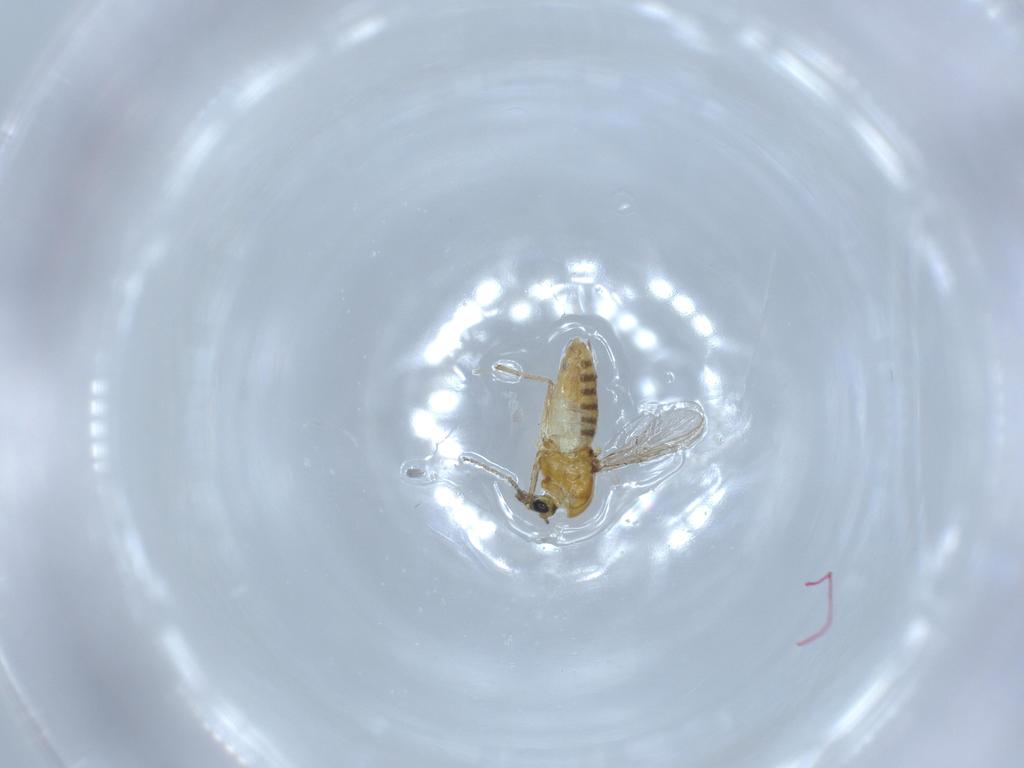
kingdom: Animalia
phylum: Arthropoda
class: Insecta
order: Diptera
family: Chironomidae
